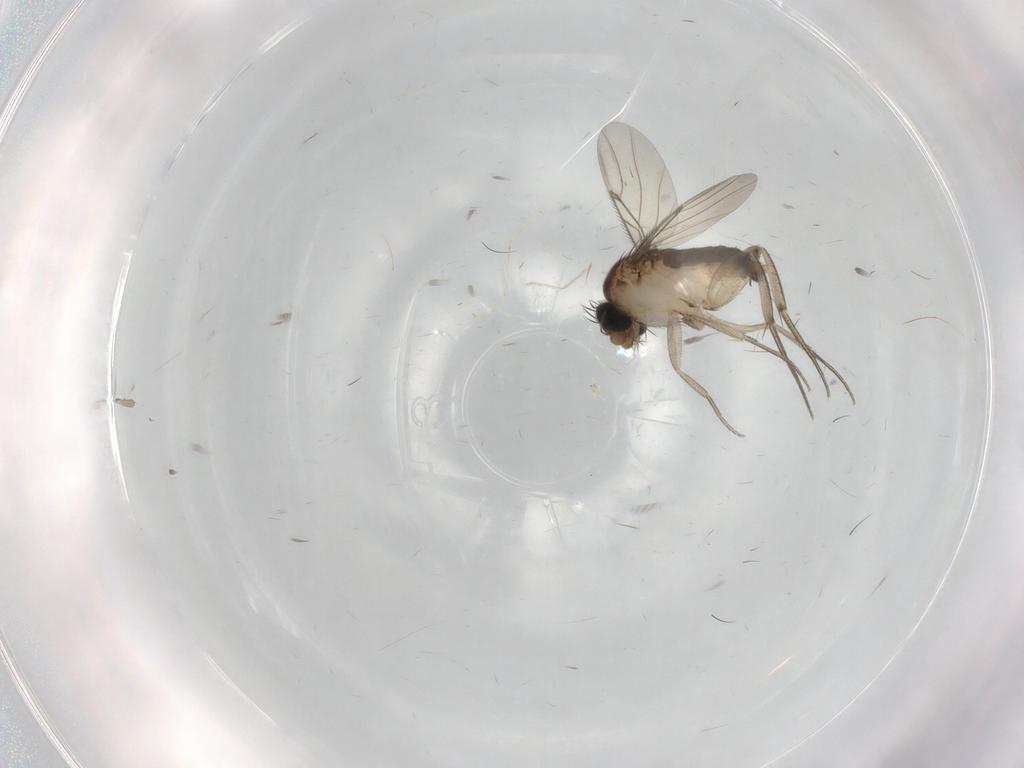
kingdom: Animalia
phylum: Arthropoda
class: Insecta
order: Diptera
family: Phoridae
